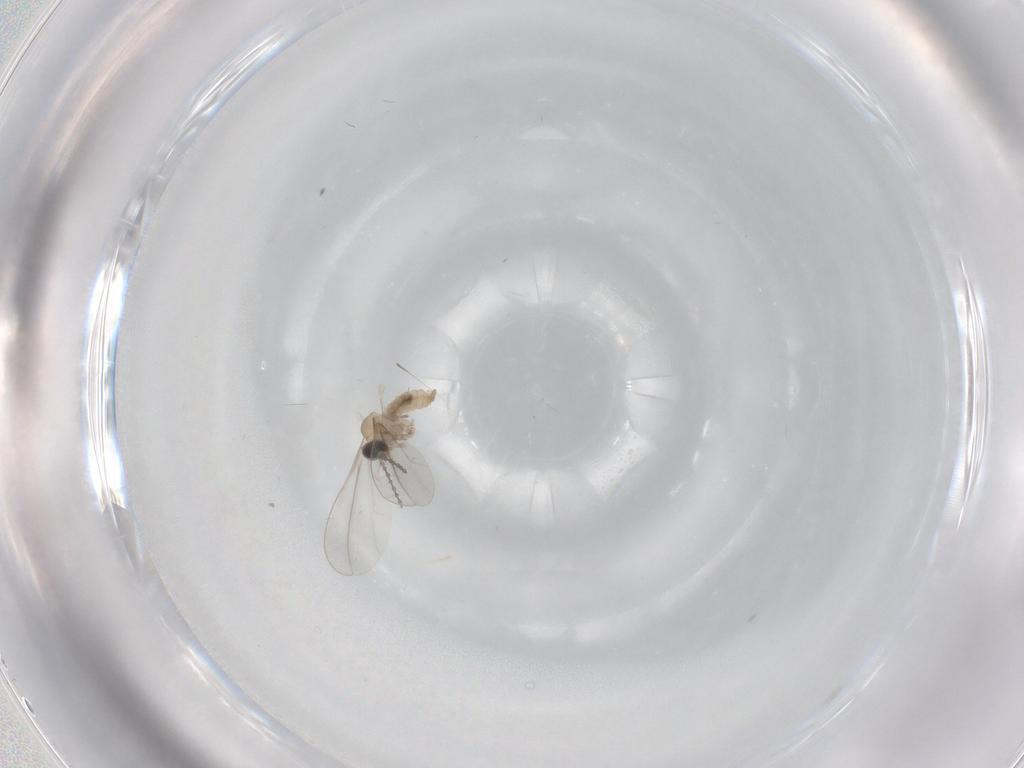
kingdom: Animalia
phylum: Arthropoda
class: Insecta
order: Diptera
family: Cecidomyiidae
